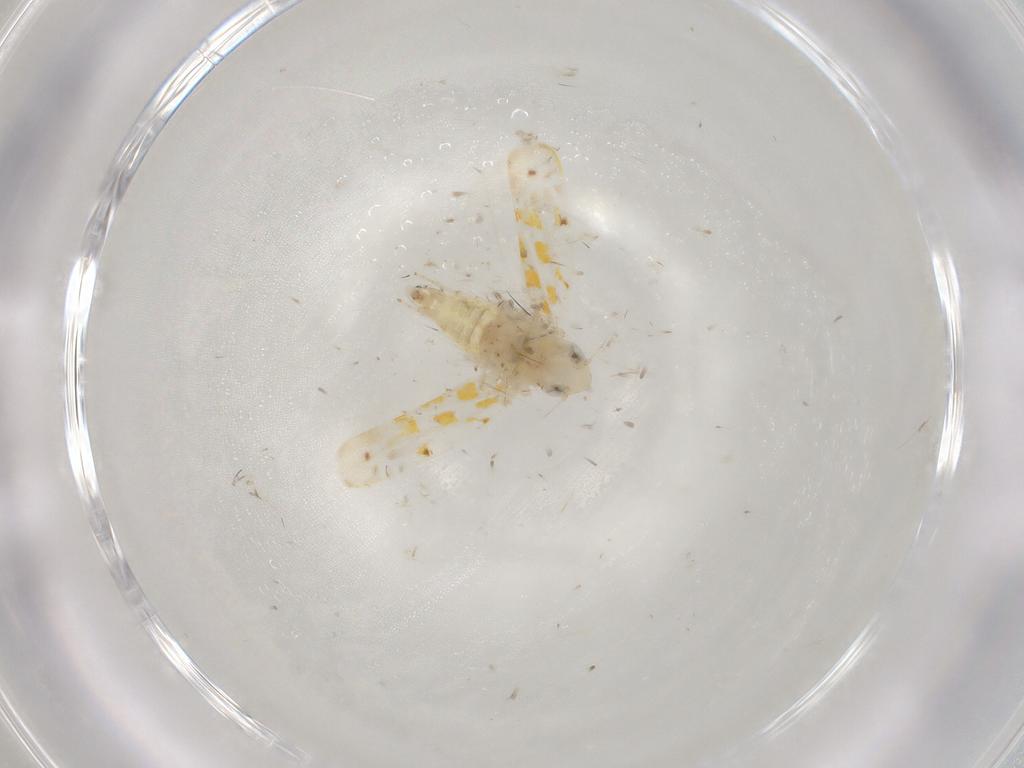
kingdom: Animalia
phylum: Arthropoda
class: Insecta
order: Hemiptera
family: Cicadellidae
